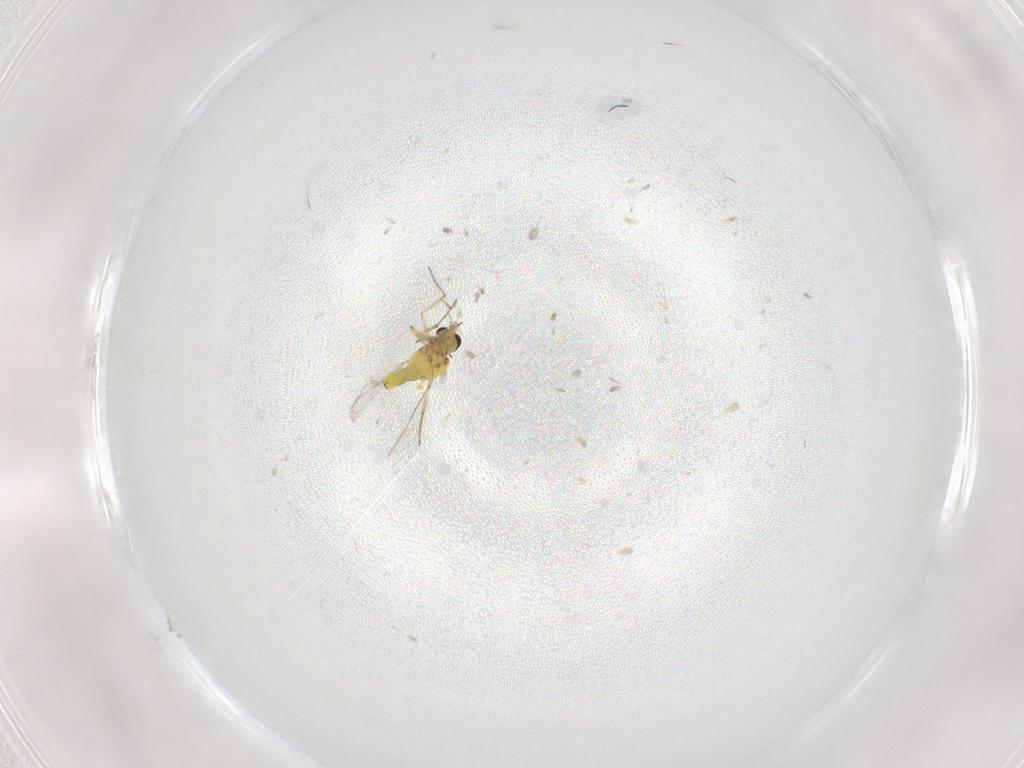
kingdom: Animalia
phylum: Arthropoda
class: Insecta
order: Diptera
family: Ceratopogonidae
